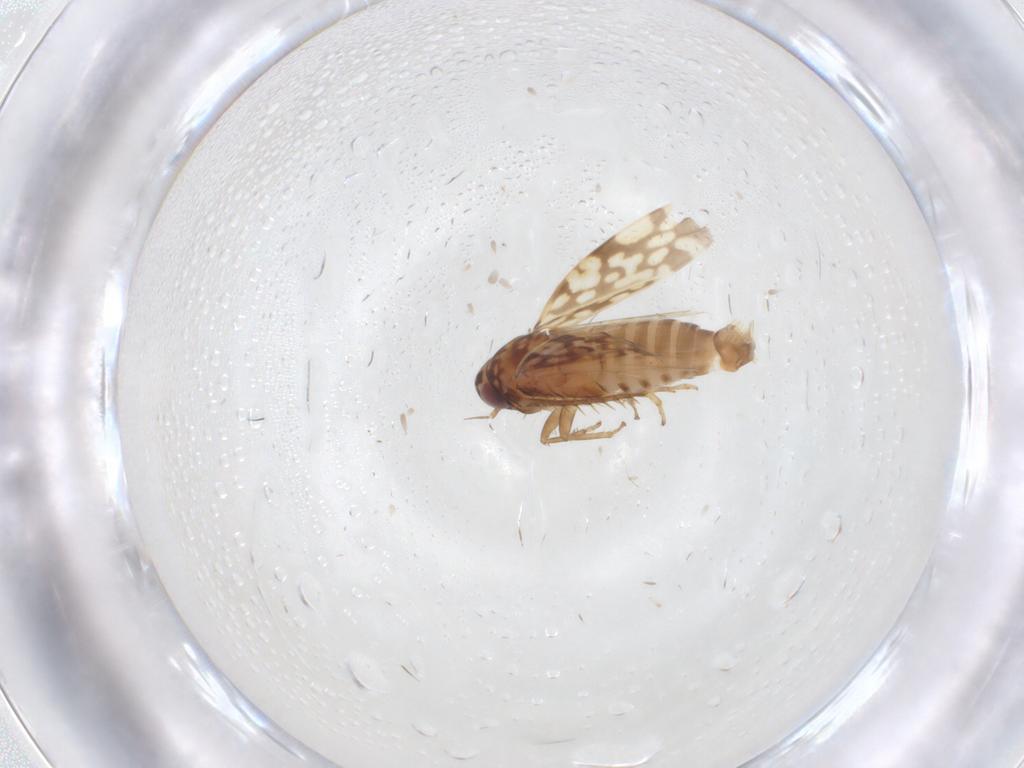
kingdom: Animalia
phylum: Arthropoda
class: Insecta
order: Hemiptera
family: Cicadellidae
